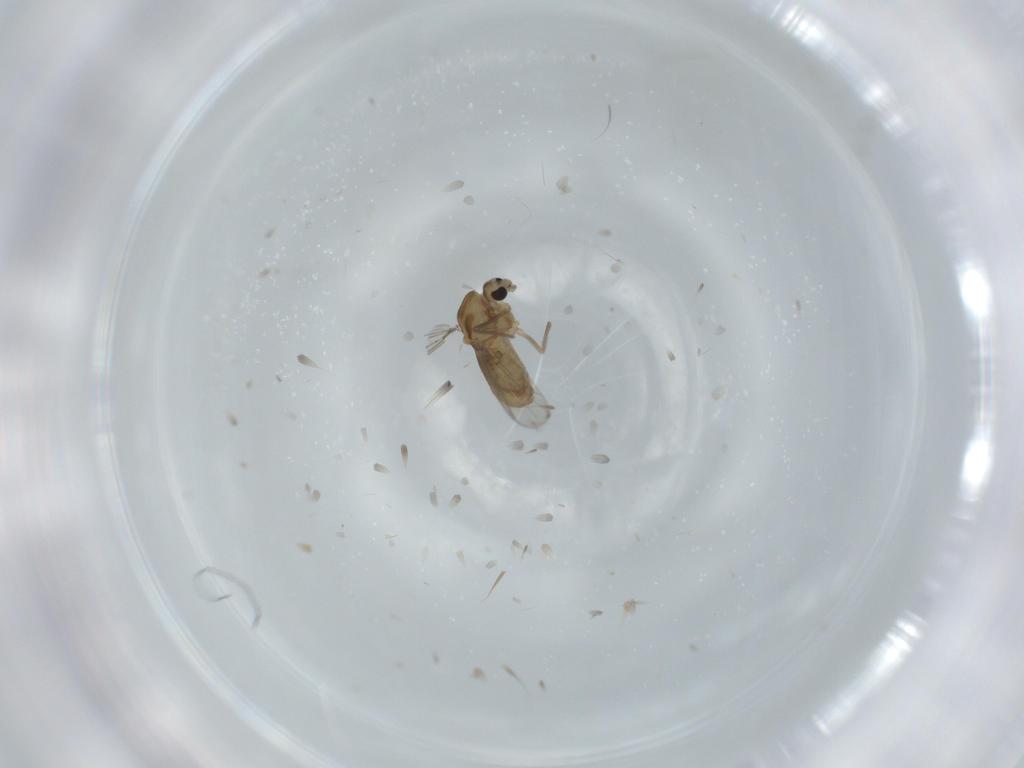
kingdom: Animalia
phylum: Arthropoda
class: Insecta
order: Diptera
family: Chironomidae
